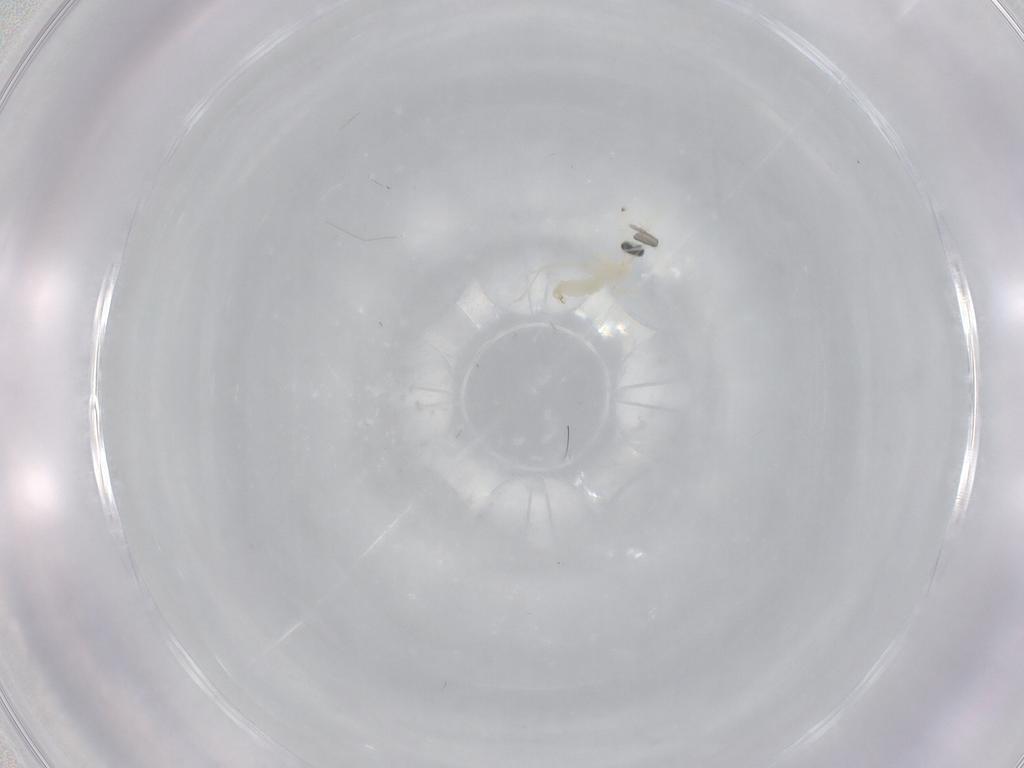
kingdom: Animalia
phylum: Arthropoda
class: Insecta
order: Diptera
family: Cecidomyiidae
